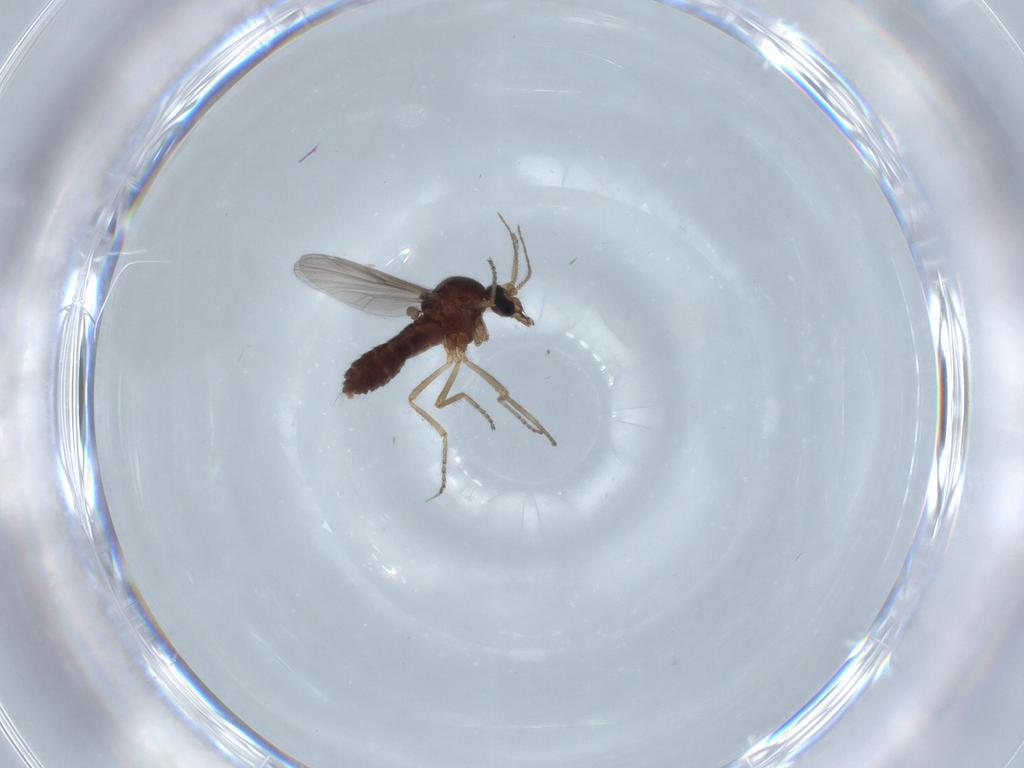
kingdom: Animalia
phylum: Arthropoda
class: Insecta
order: Diptera
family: Ceratopogonidae
